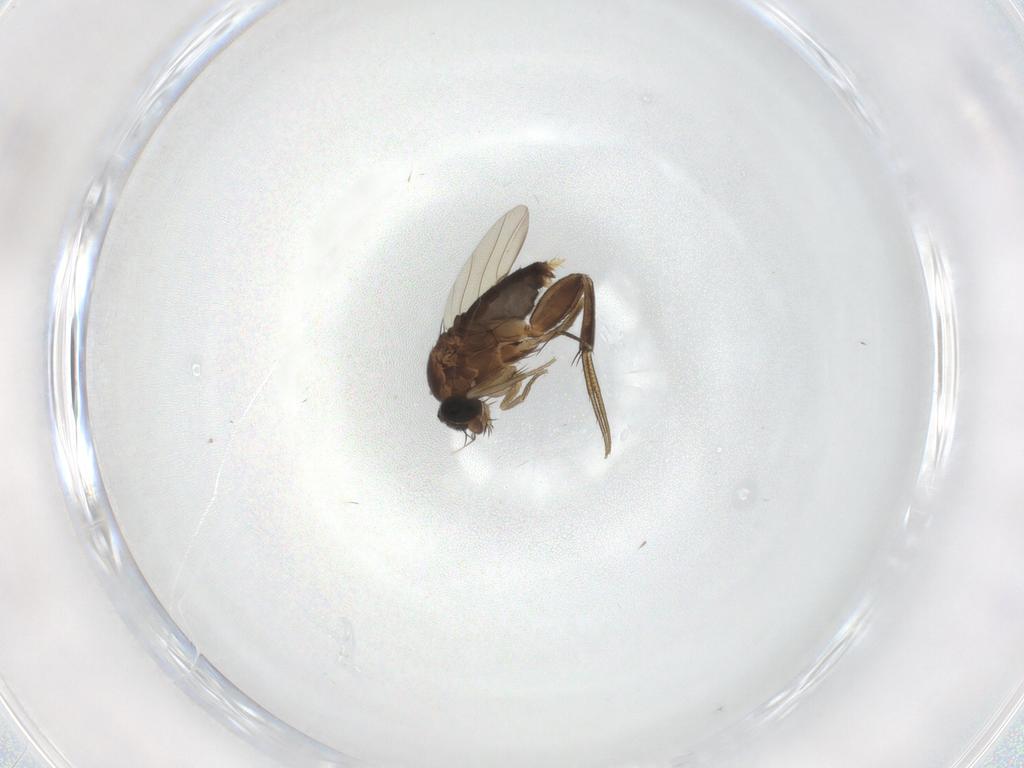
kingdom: Animalia
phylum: Arthropoda
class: Insecta
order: Diptera
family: Phoridae
